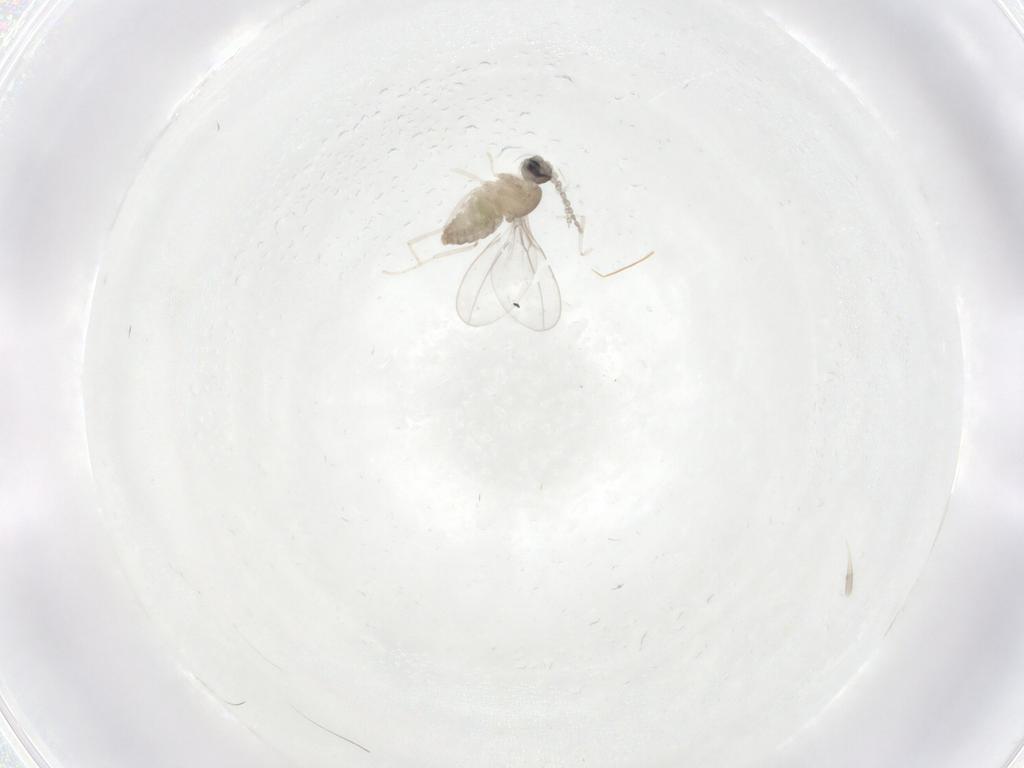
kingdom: Animalia
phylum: Arthropoda
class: Insecta
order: Diptera
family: Cecidomyiidae
